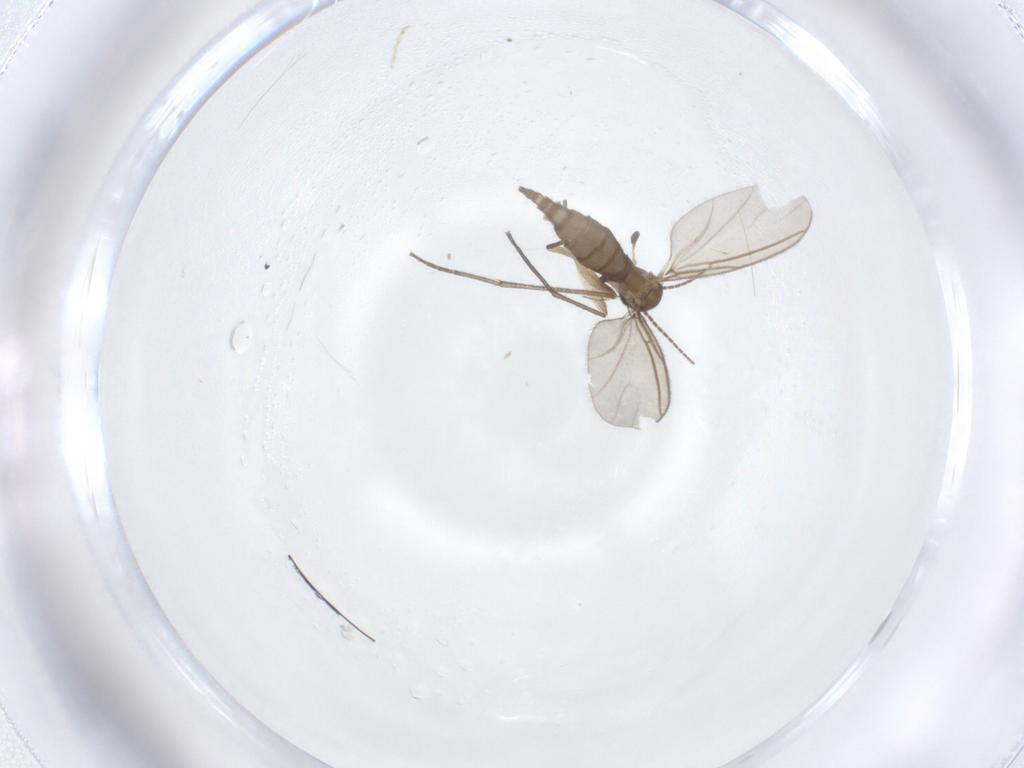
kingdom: Animalia
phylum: Arthropoda
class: Insecta
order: Diptera
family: Sciaridae
